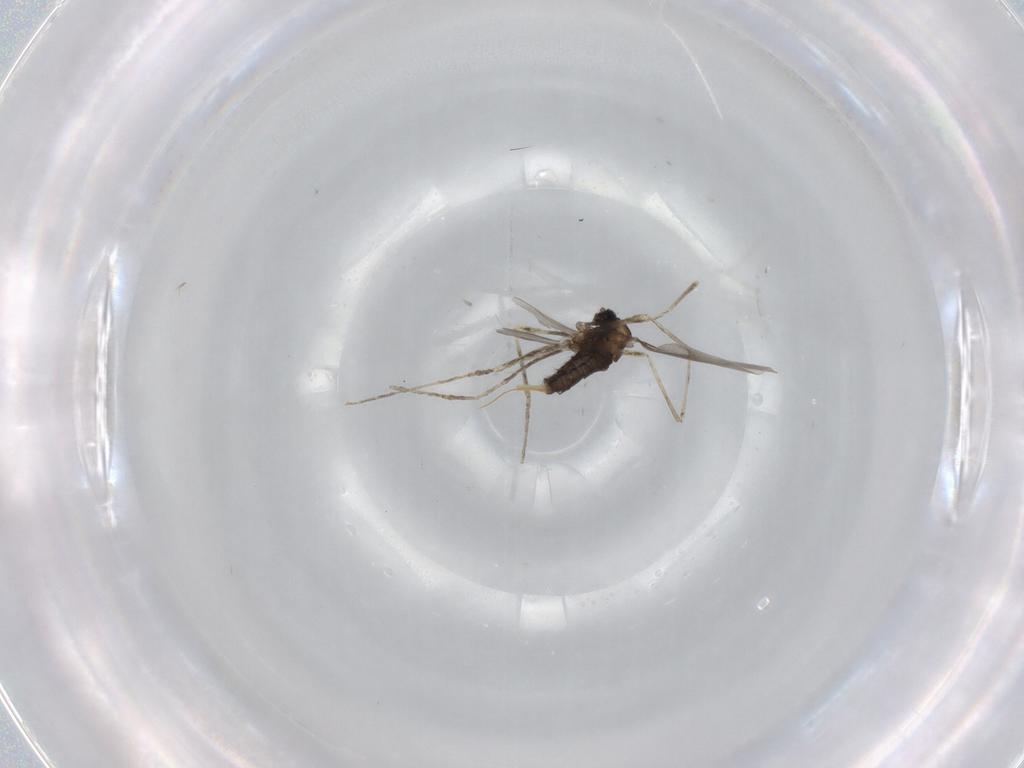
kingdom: Animalia
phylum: Arthropoda
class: Insecta
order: Diptera
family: Cecidomyiidae
